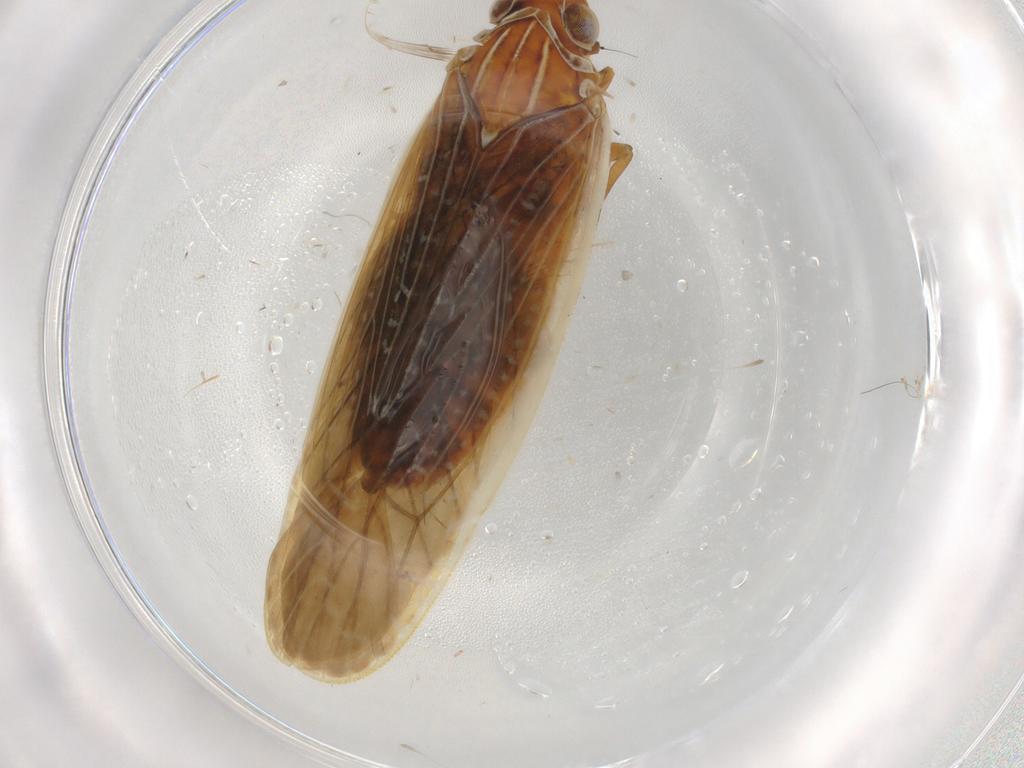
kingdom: Animalia
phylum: Arthropoda
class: Insecta
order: Hemiptera
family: Achilidae
